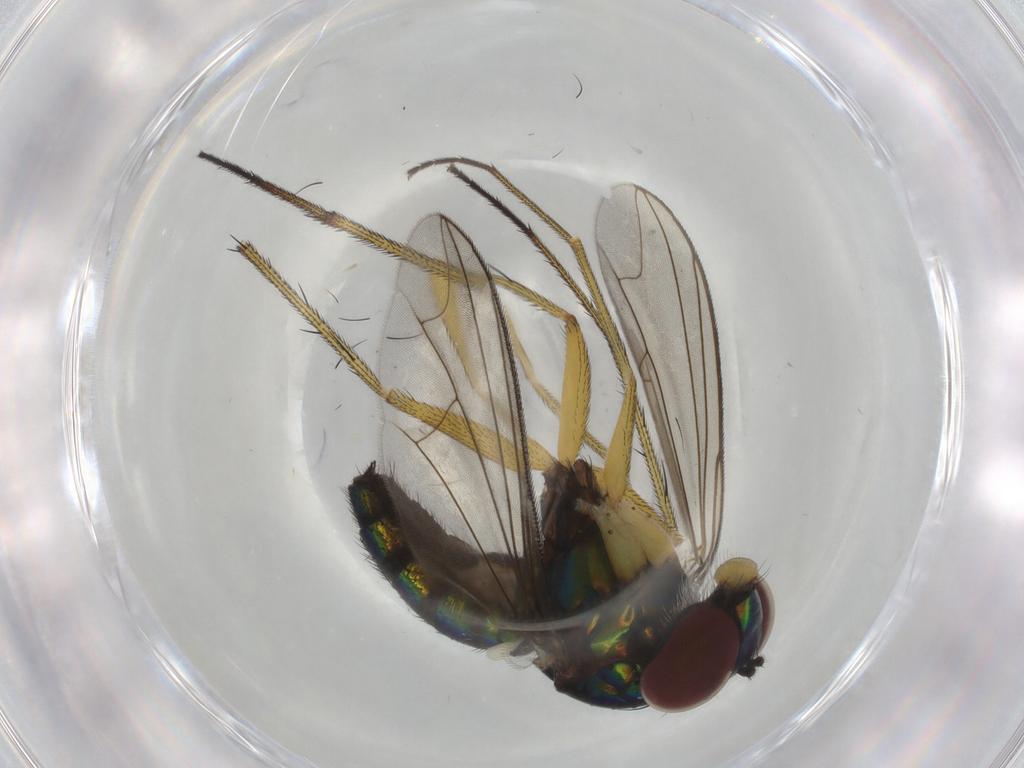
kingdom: Animalia
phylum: Arthropoda
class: Insecta
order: Diptera
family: Dolichopodidae
